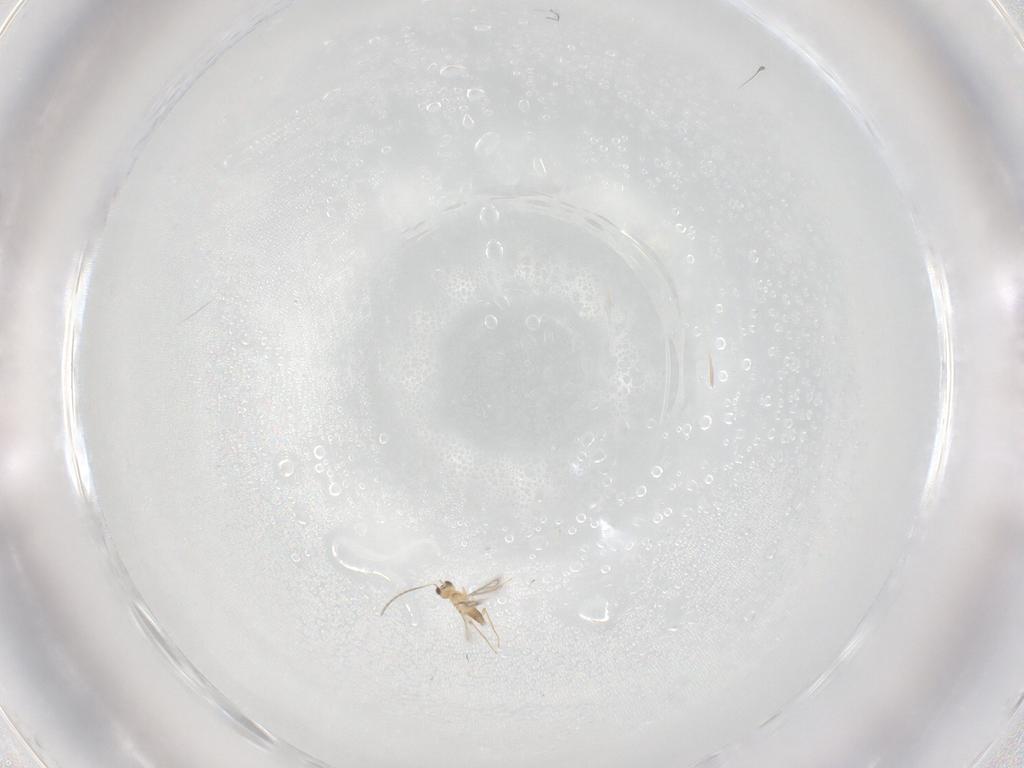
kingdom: Animalia
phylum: Arthropoda
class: Insecta
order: Hymenoptera
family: Mymaridae
